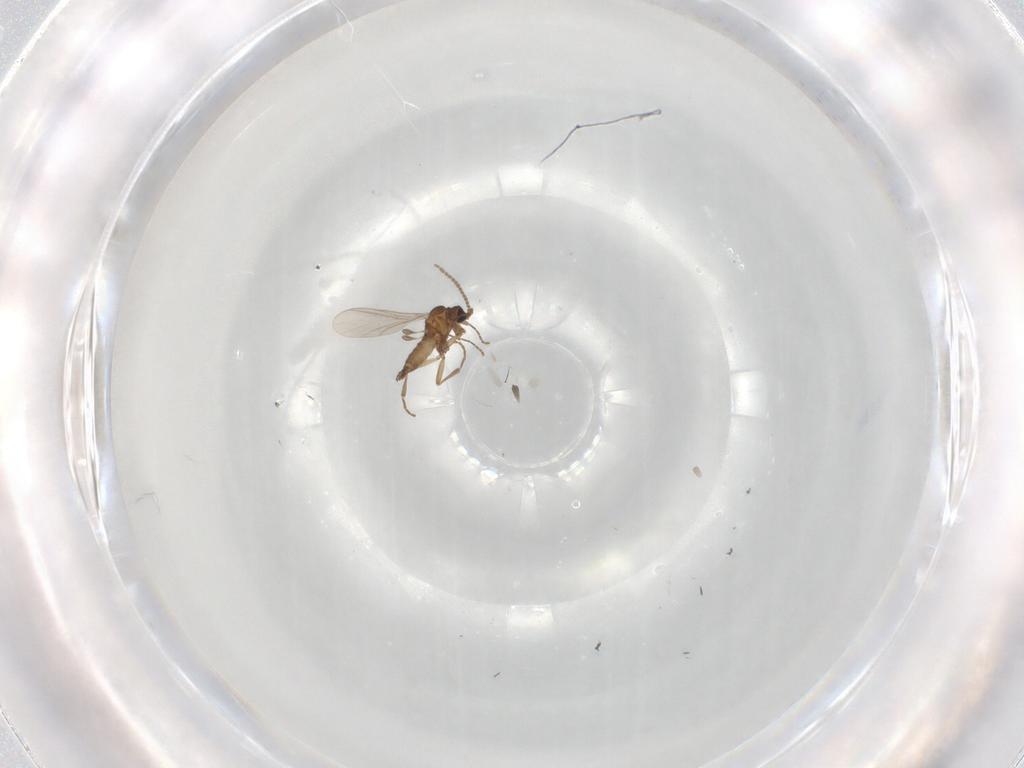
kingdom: Animalia
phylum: Arthropoda
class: Insecta
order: Diptera
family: Sciaridae
